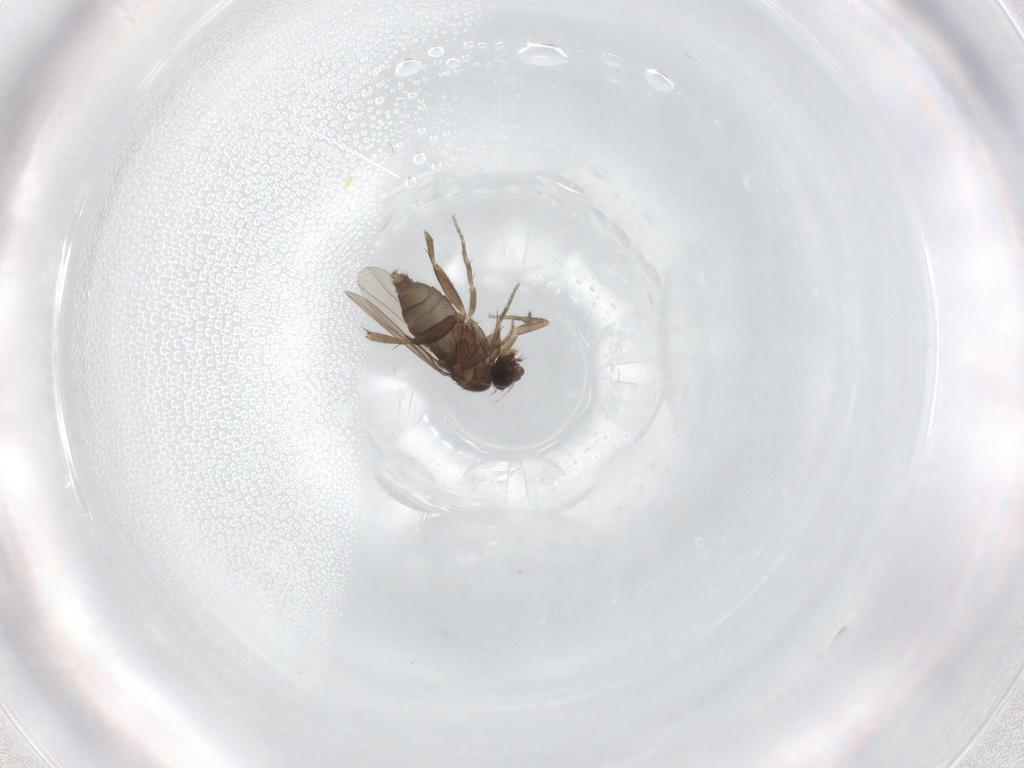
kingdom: Animalia
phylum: Arthropoda
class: Insecta
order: Diptera
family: Phoridae
